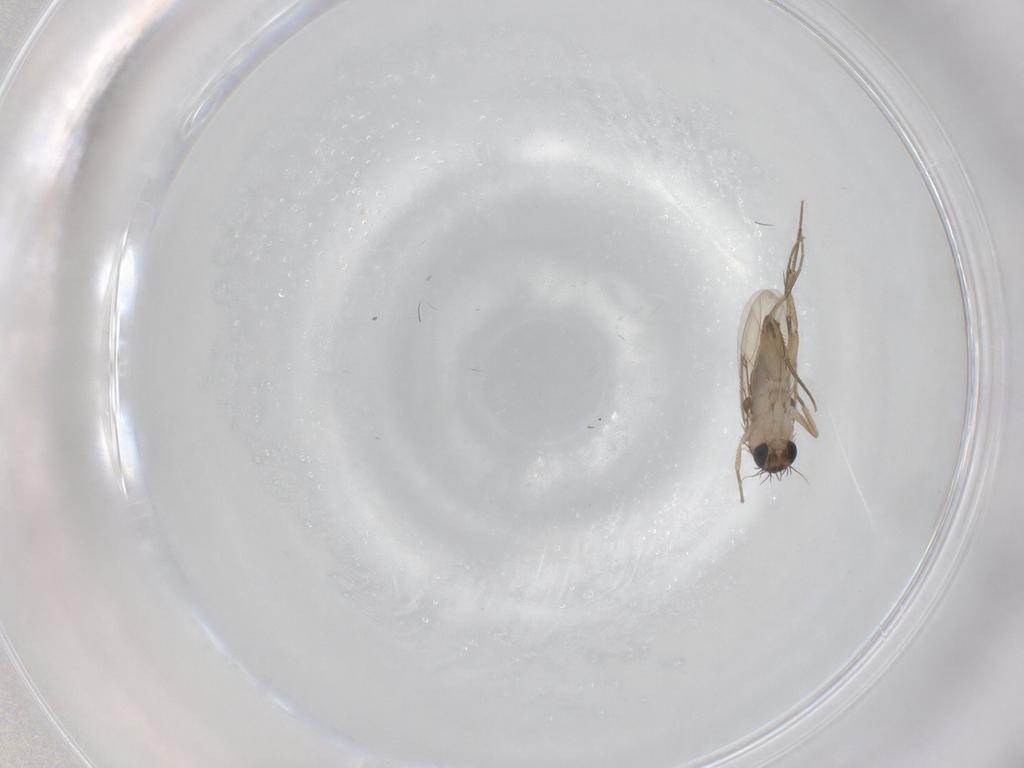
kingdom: Animalia
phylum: Arthropoda
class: Insecta
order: Diptera
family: Phoridae
